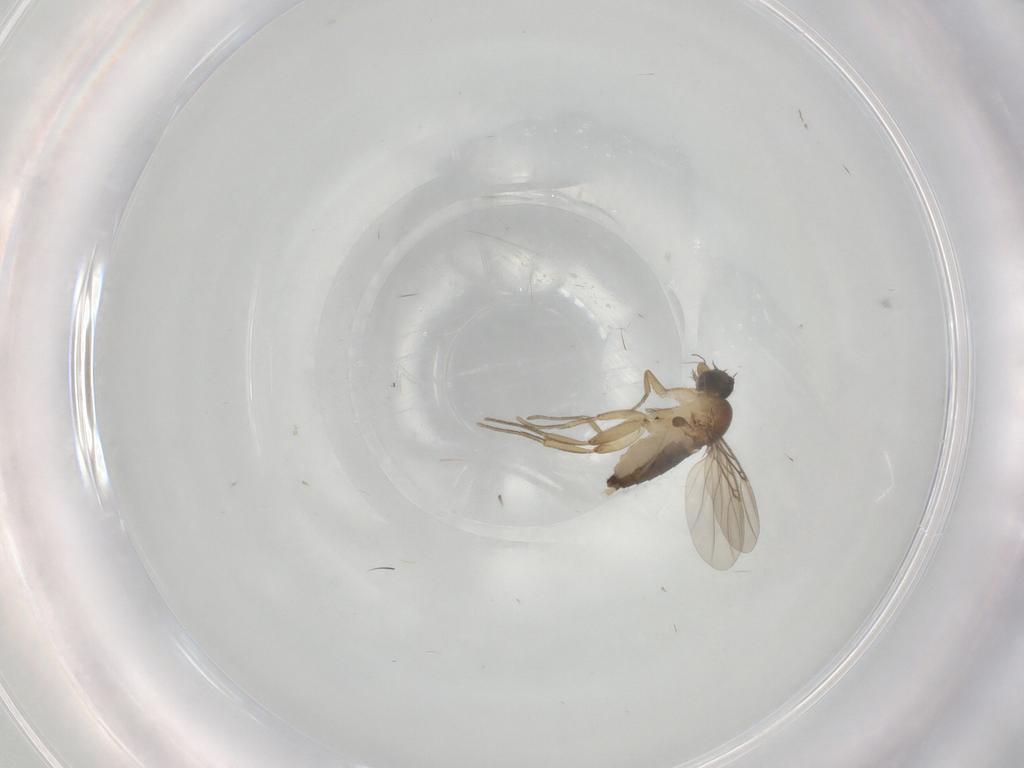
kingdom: Animalia
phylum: Arthropoda
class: Insecta
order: Diptera
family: Phoridae
